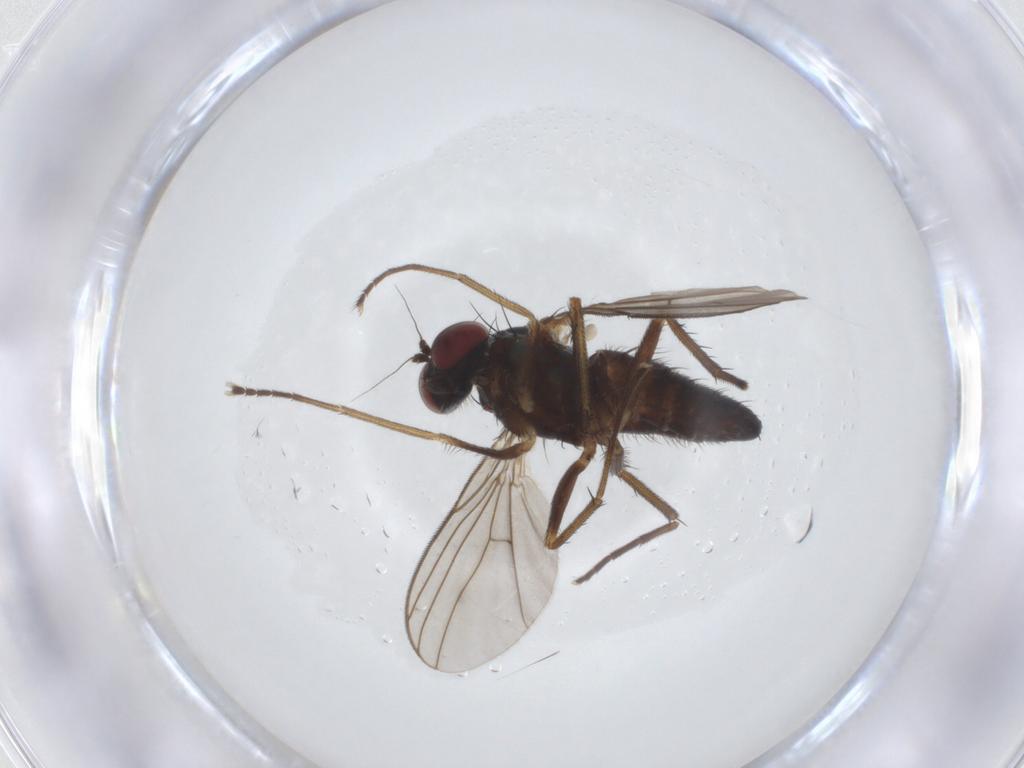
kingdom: Animalia
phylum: Arthropoda
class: Insecta
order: Diptera
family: Dolichopodidae
